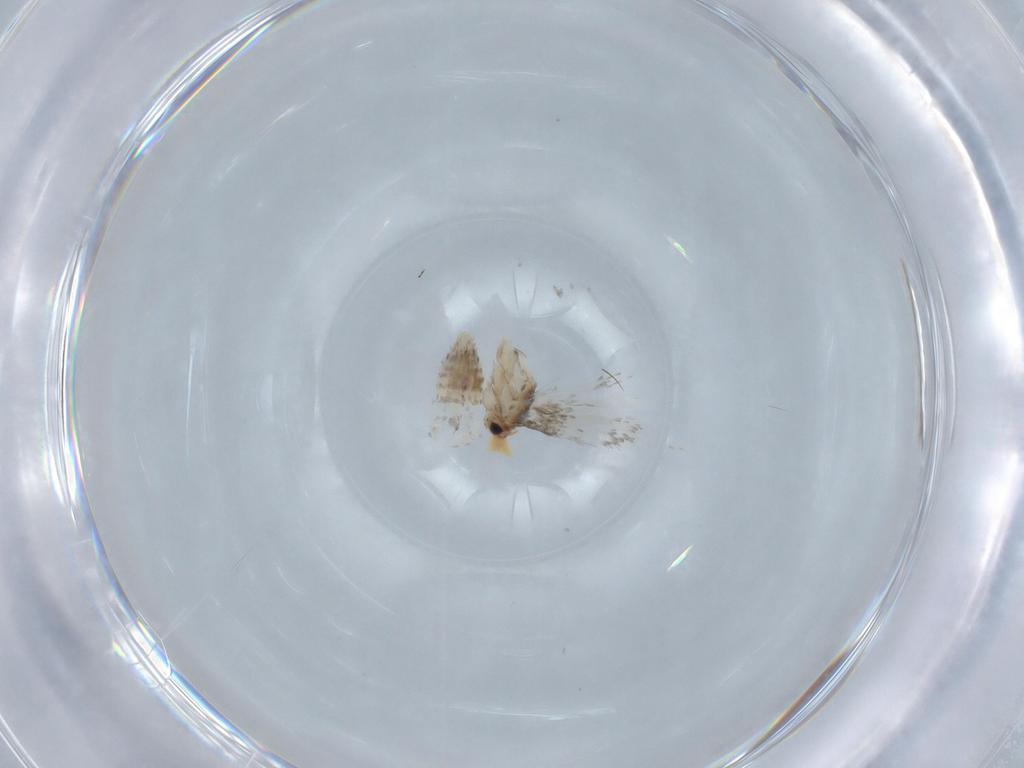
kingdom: Animalia
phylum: Arthropoda
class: Insecta
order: Lepidoptera
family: Nepticulidae
